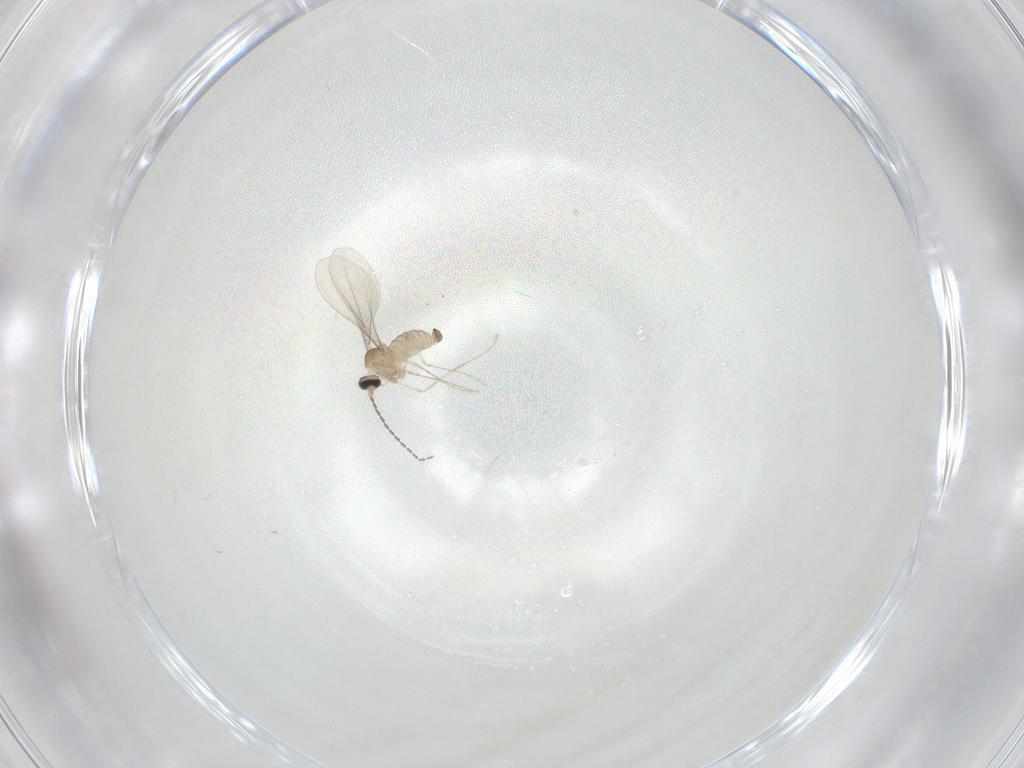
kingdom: Animalia
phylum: Arthropoda
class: Insecta
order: Diptera
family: Cecidomyiidae
